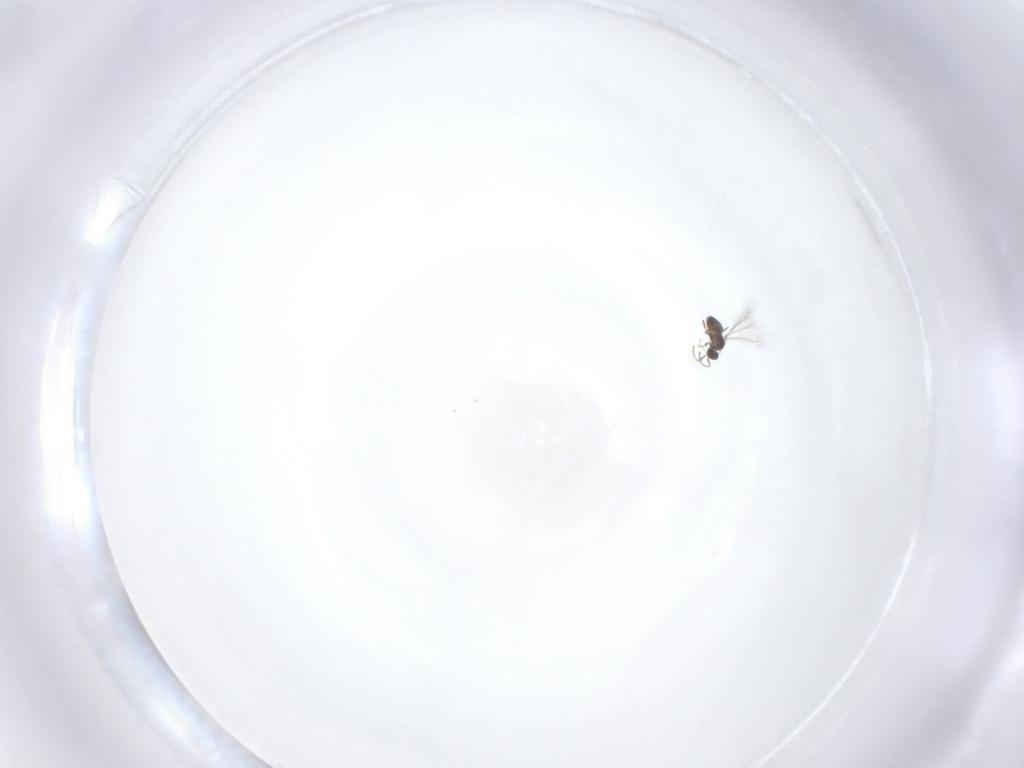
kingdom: Animalia
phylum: Arthropoda
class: Insecta
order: Hymenoptera
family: Mymaridae
